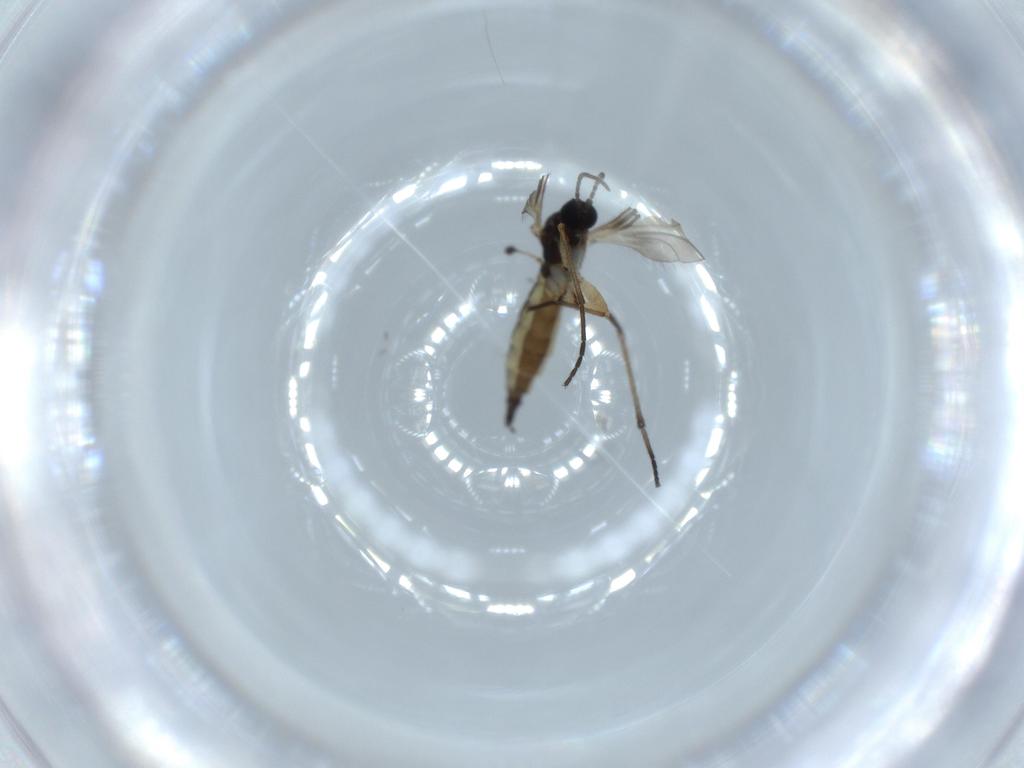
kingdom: Animalia
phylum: Arthropoda
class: Insecta
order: Diptera
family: Sciaridae
